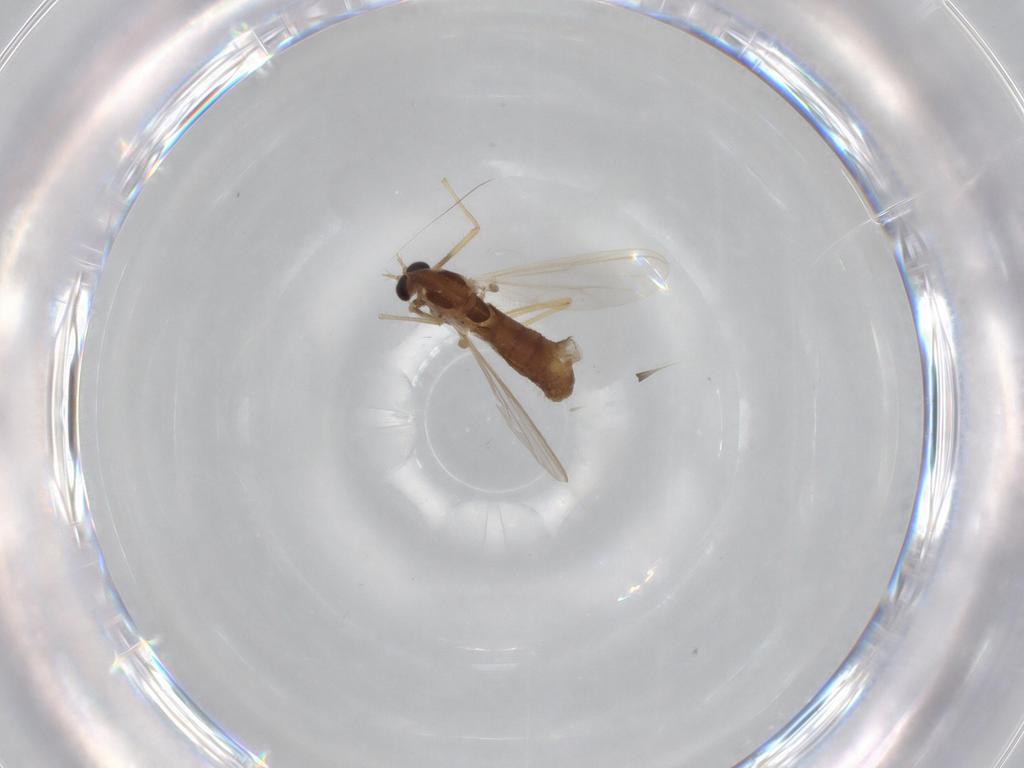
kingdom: Animalia
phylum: Arthropoda
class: Insecta
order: Diptera
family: Chironomidae
